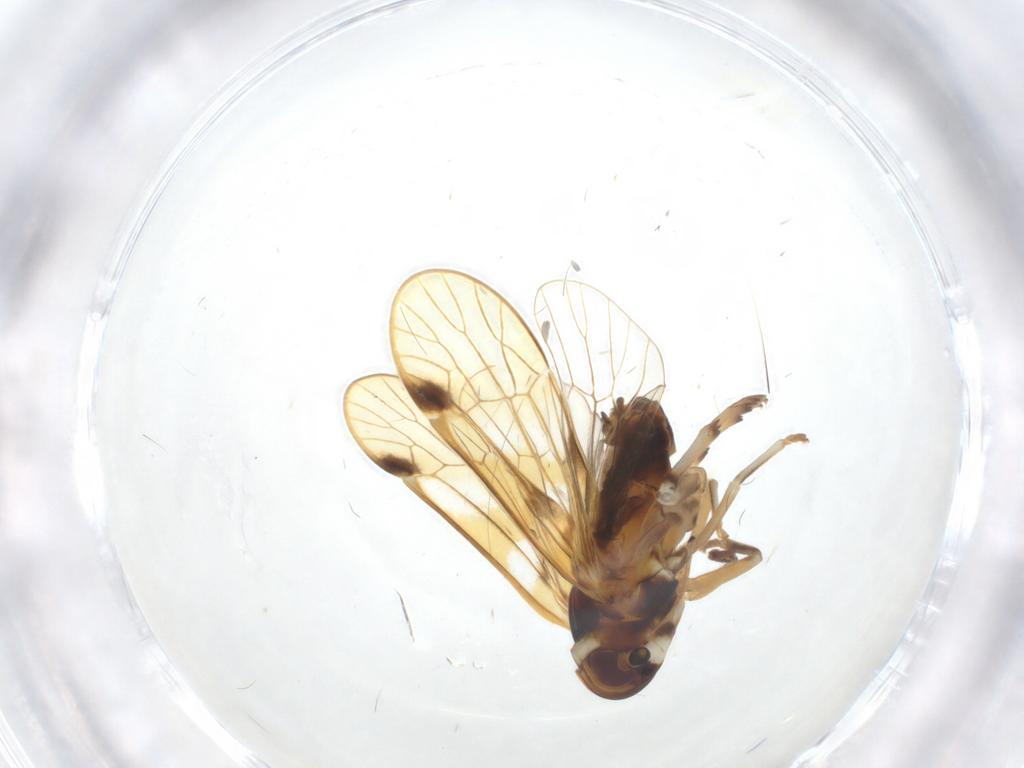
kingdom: Animalia
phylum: Arthropoda
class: Insecta
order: Hemiptera
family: Kinnaridae
